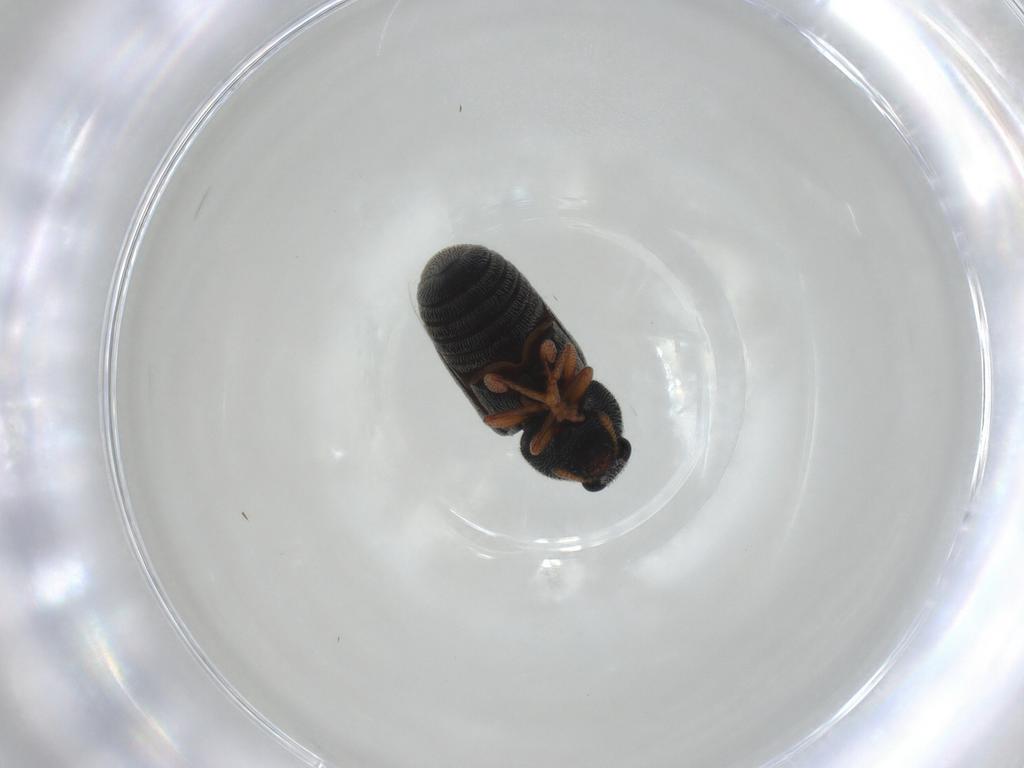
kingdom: Animalia
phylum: Arthropoda
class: Insecta
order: Coleoptera
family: Anthribidae
